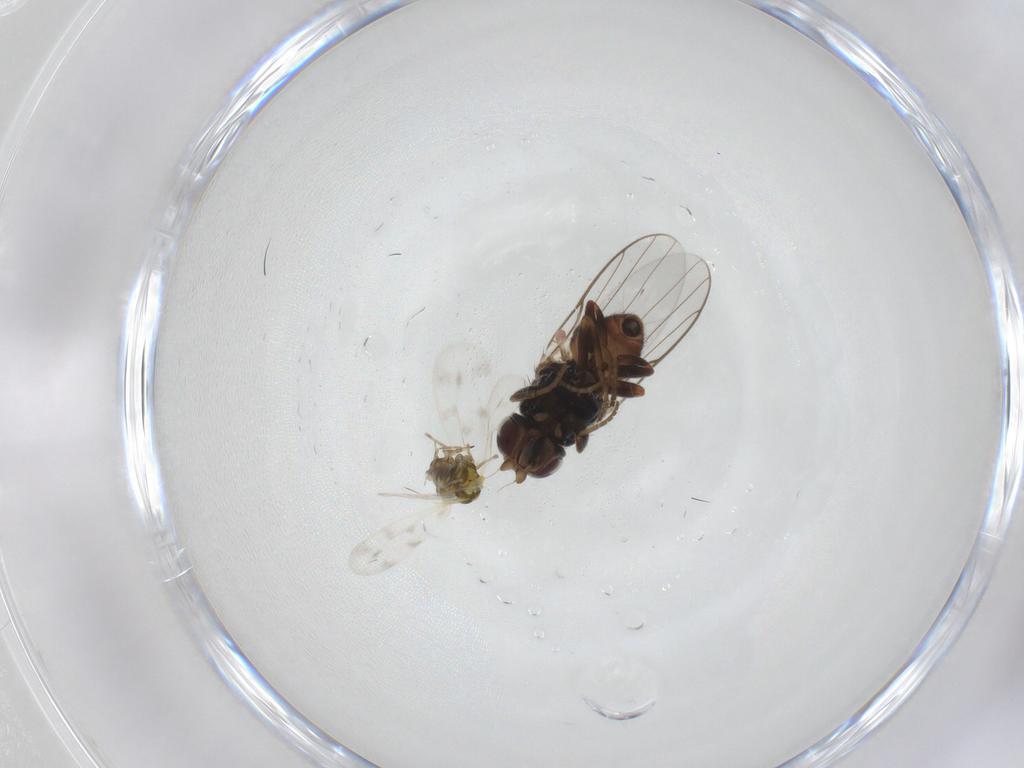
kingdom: Animalia
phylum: Arthropoda
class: Insecta
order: Diptera
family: Chloropidae
